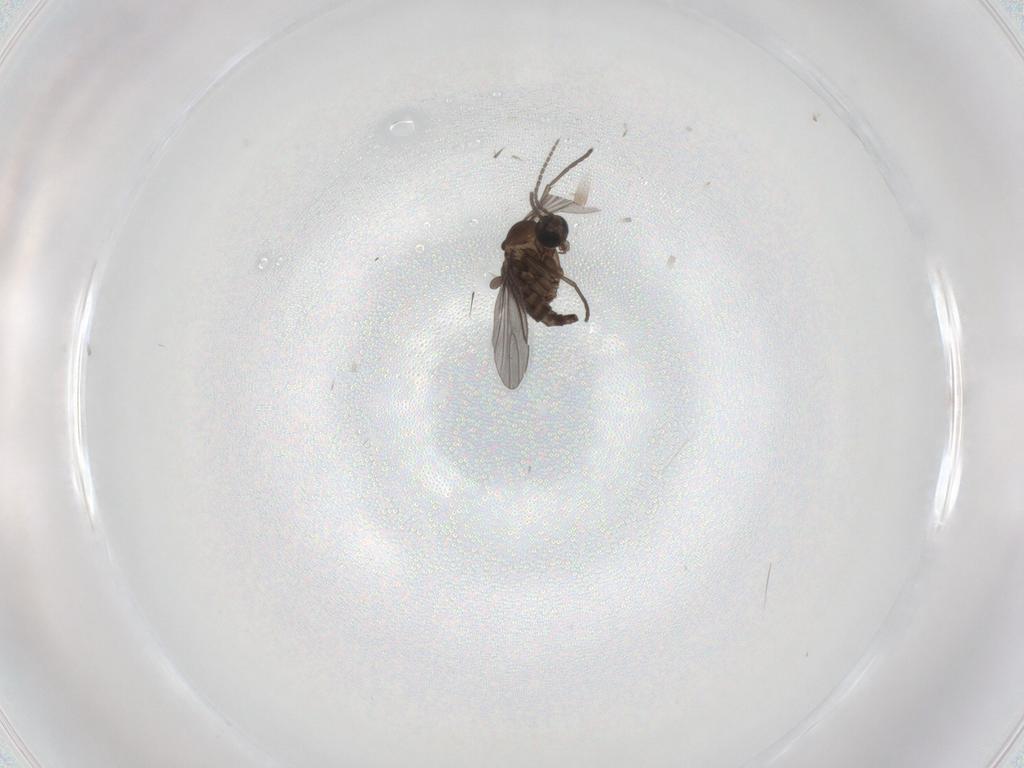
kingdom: Animalia
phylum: Arthropoda
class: Insecta
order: Diptera
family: Sciaridae
